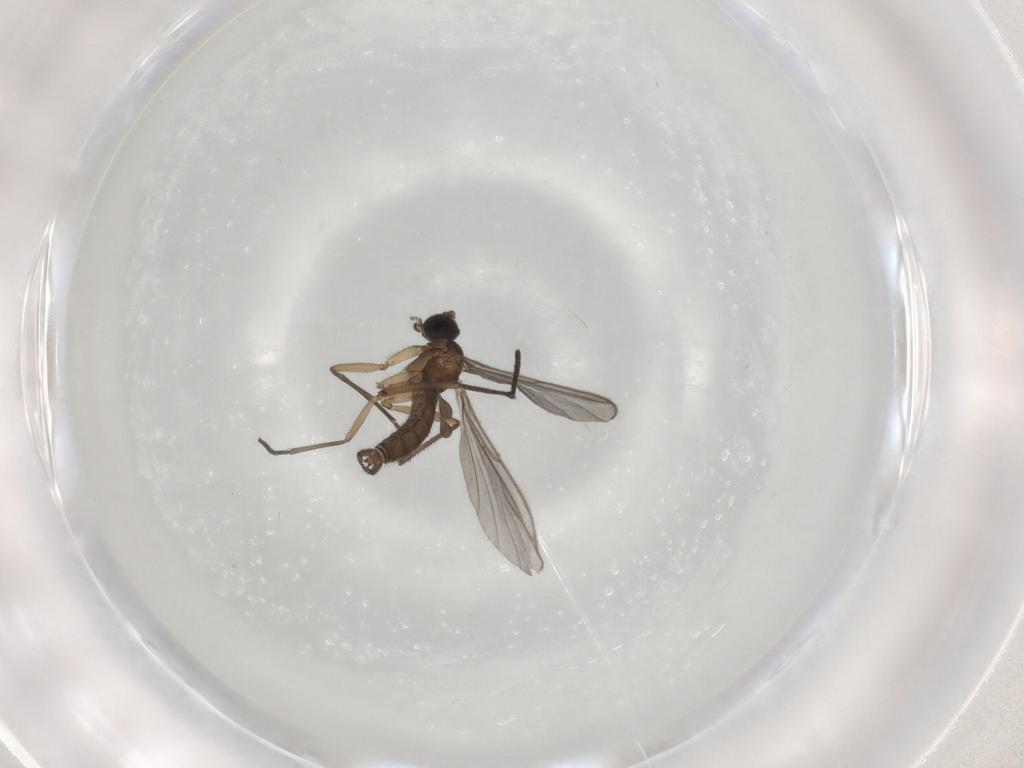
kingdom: Animalia
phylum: Arthropoda
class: Insecta
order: Diptera
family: Sciaridae
